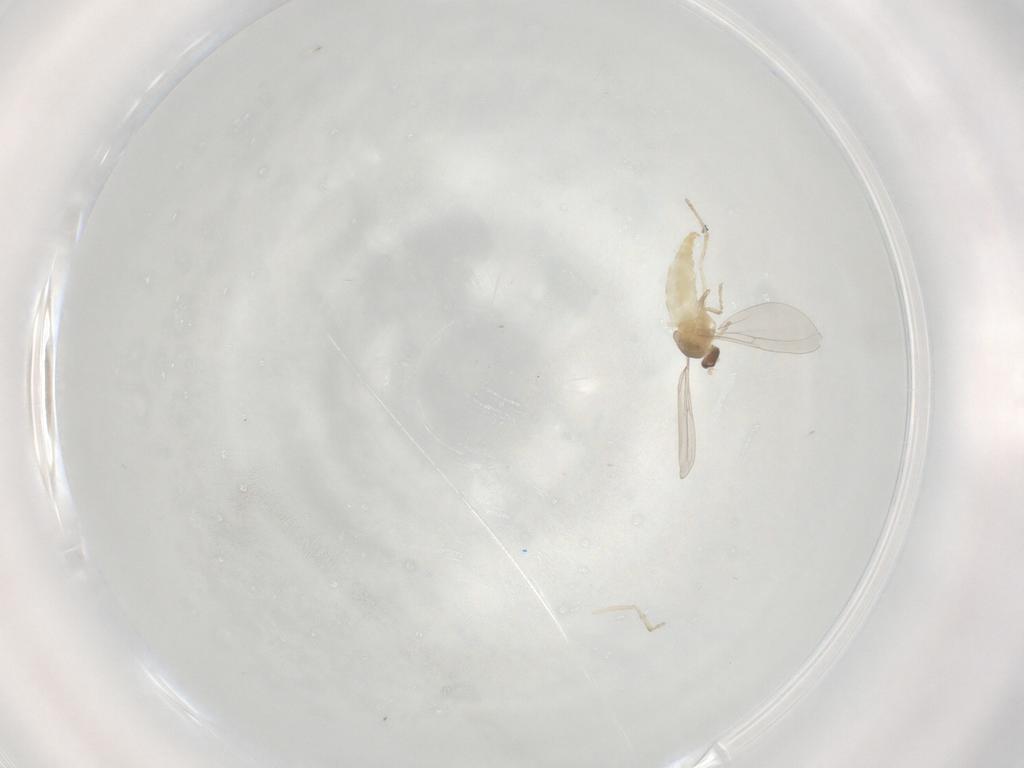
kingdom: Animalia
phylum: Arthropoda
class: Insecta
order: Diptera
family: Cecidomyiidae
